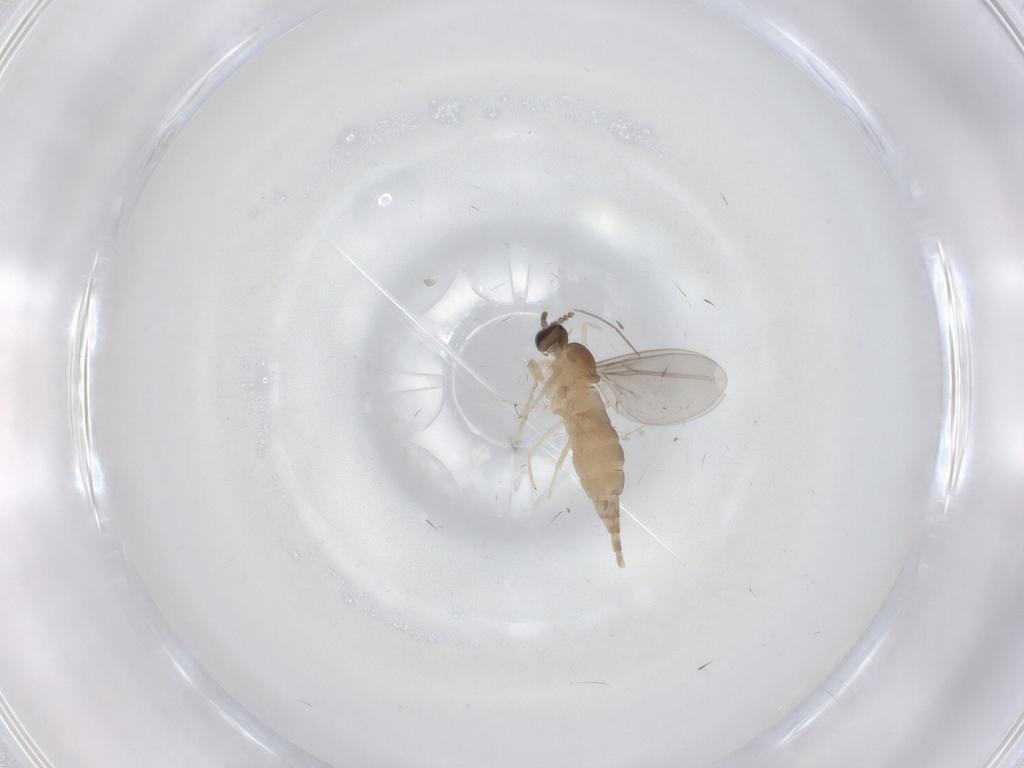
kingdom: Animalia
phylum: Arthropoda
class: Insecta
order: Diptera
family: Cecidomyiidae
